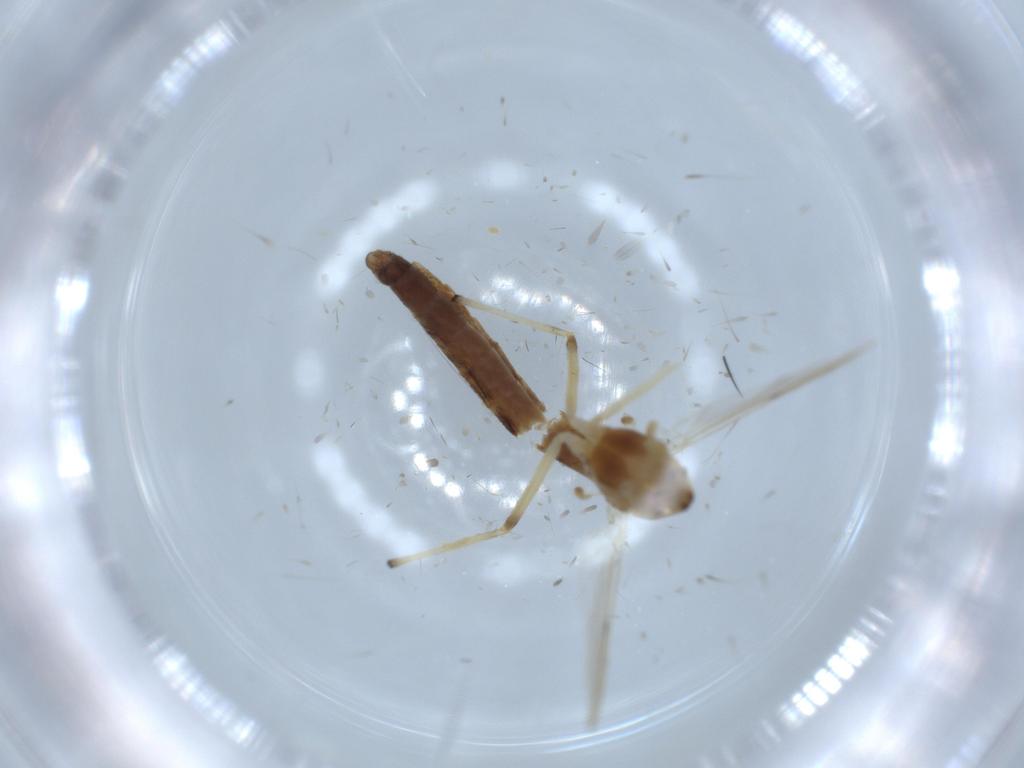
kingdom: Animalia
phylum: Arthropoda
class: Insecta
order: Diptera
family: Chironomidae
